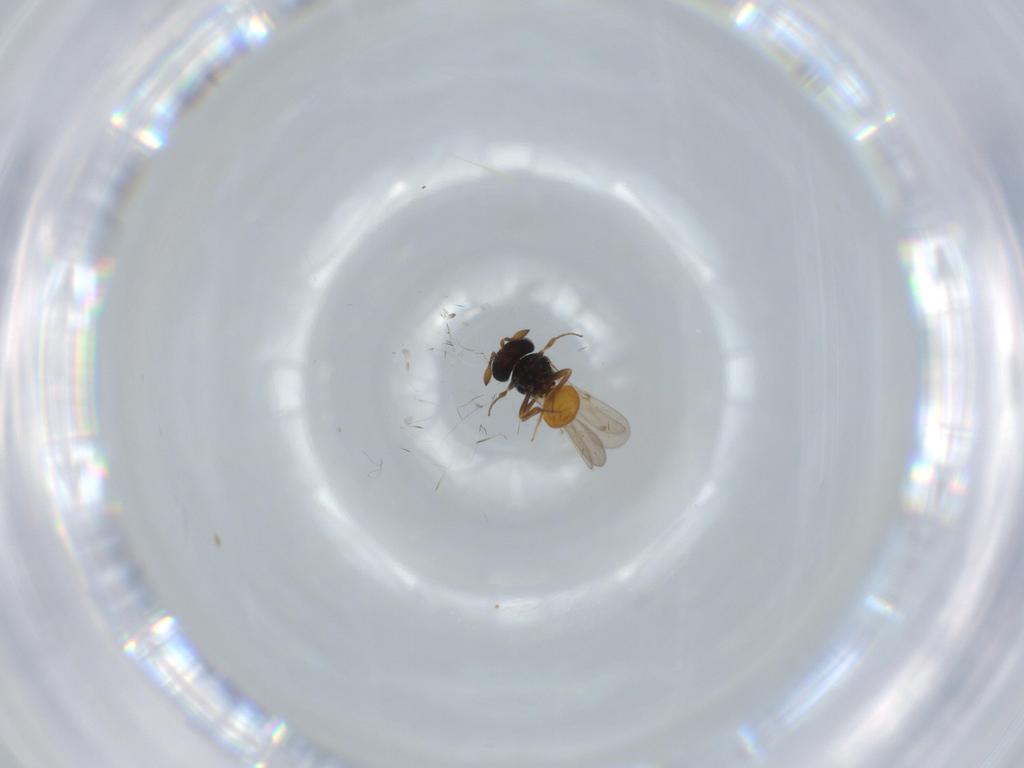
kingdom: Animalia
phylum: Arthropoda
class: Insecta
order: Hymenoptera
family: Scelionidae
